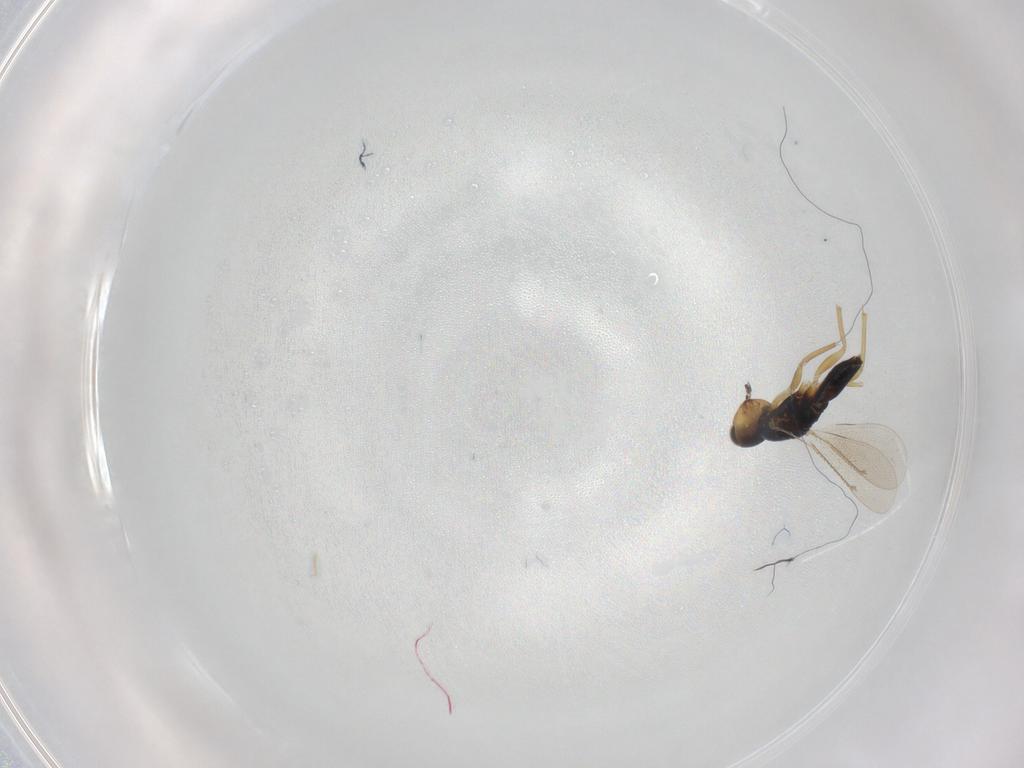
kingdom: Animalia
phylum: Arthropoda
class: Insecta
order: Hymenoptera
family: Eulophidae
